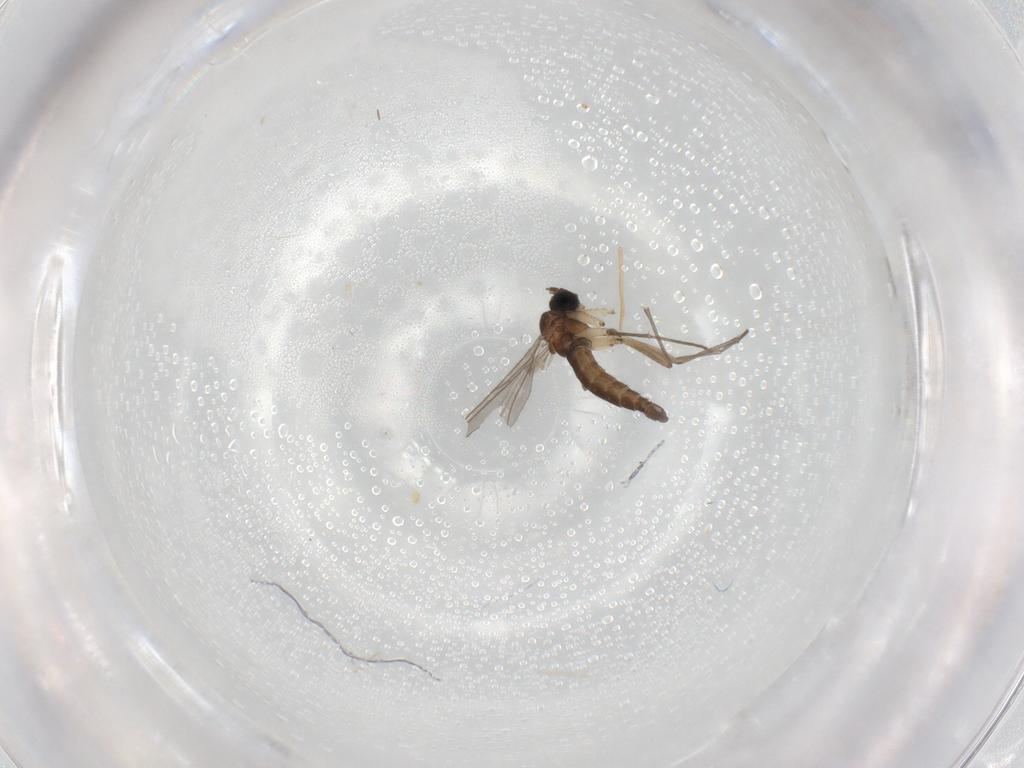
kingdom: Animalia
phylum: Arthropoda
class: Insecta
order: Diptera
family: Sciaridae
